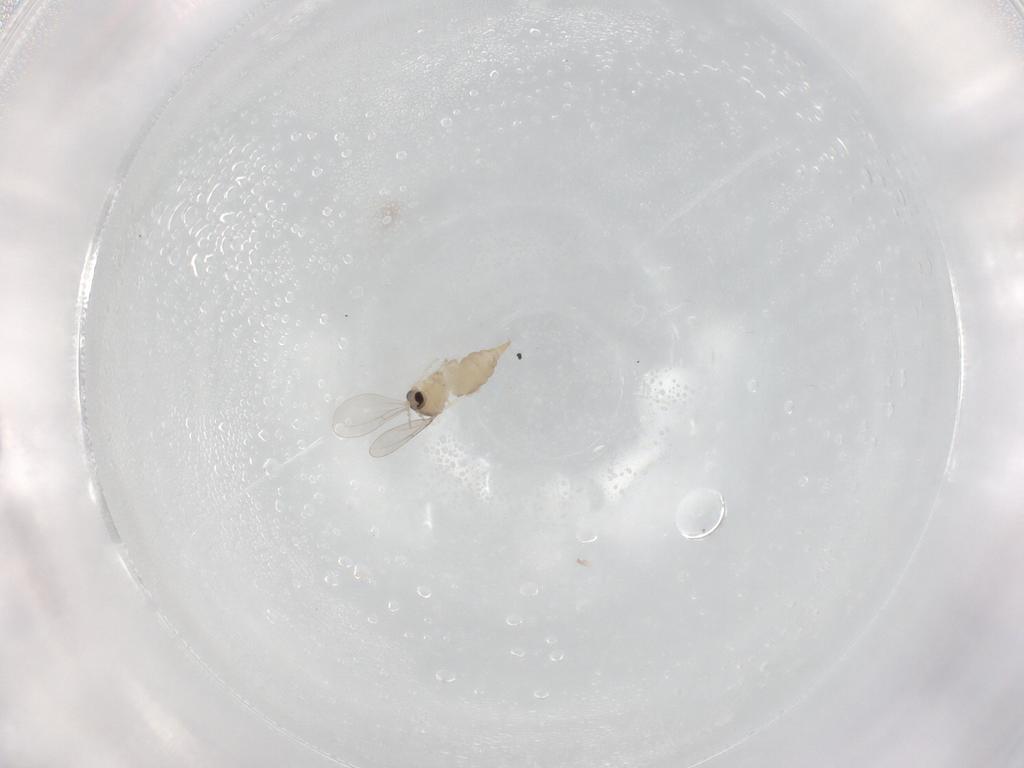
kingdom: Animalia
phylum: Arthropoda
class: Insecta
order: Diptera
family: Cecidomyiidae
